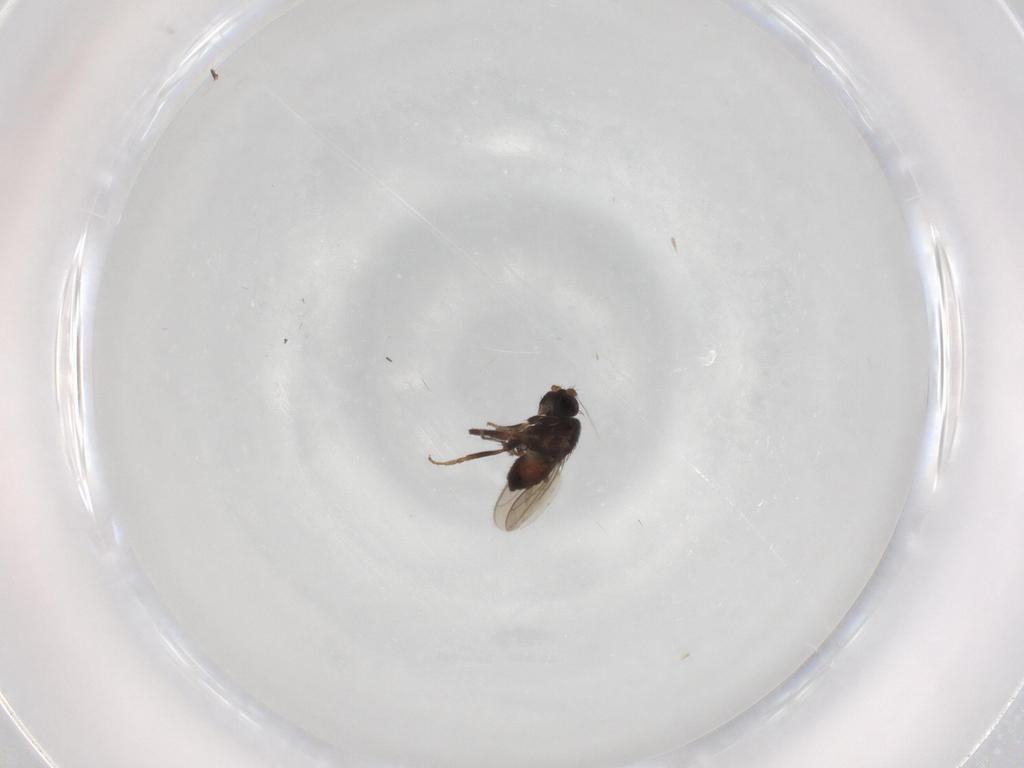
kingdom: Animalia
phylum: Arthropoda
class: Insecta
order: Diptera
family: Sphaeroceridae
